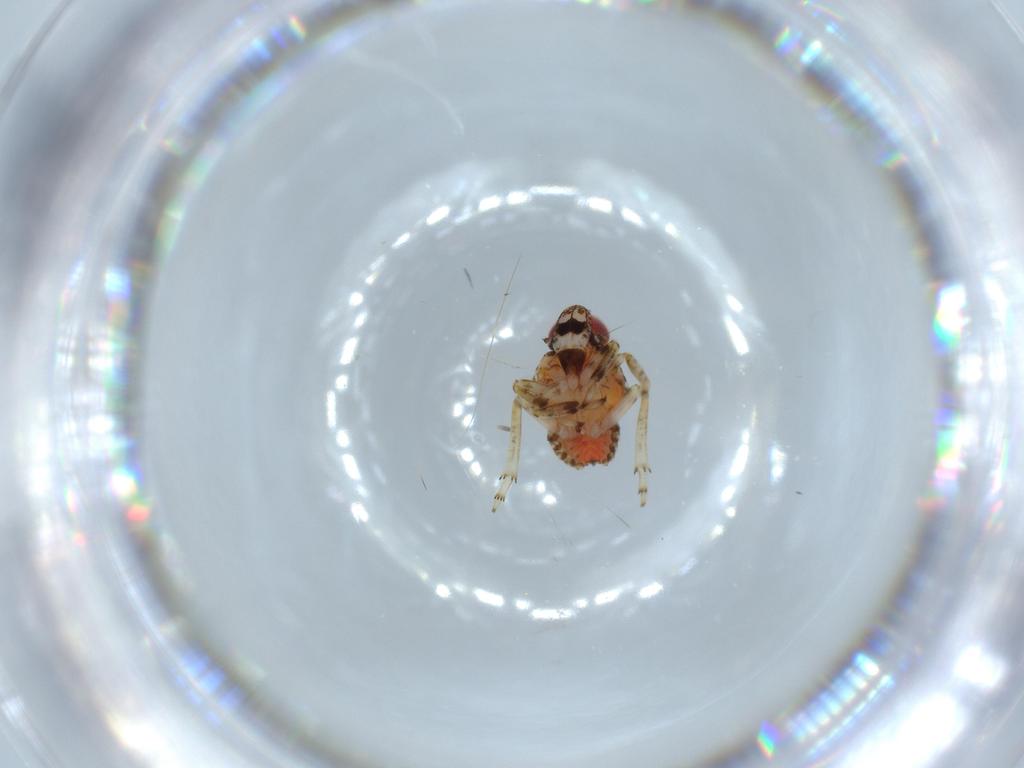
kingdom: Animalia
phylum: Arthropoda
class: Insecta
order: Hemiptera
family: Issidae
